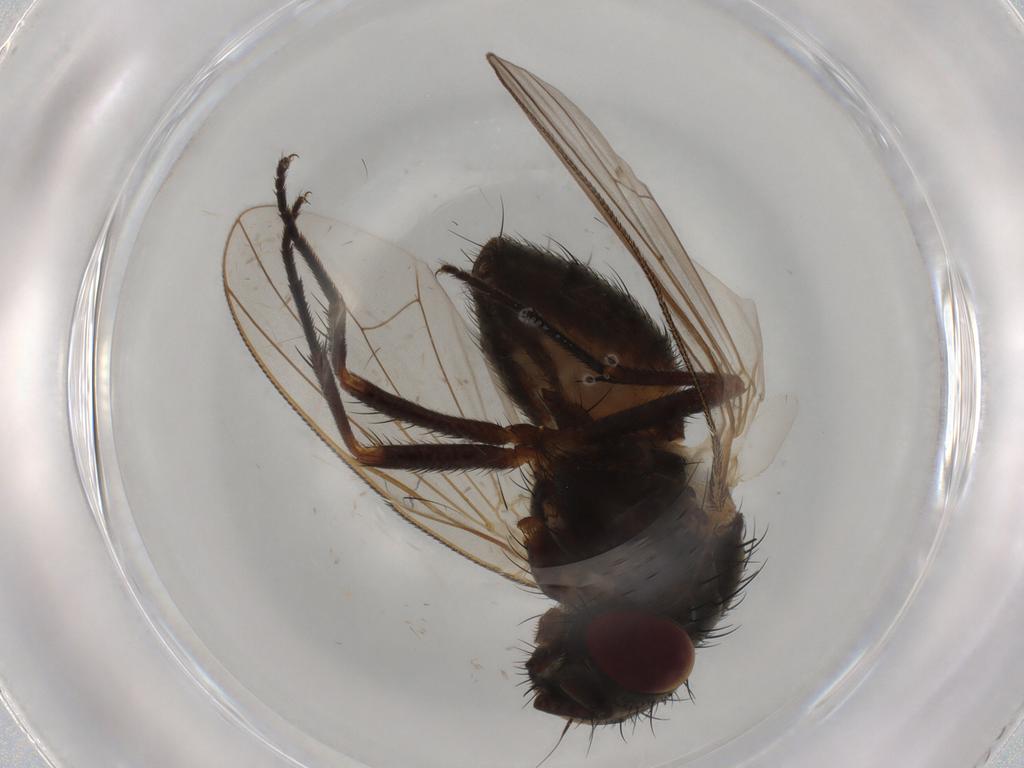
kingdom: Animalia
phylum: Arthropoda
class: Insecta
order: Diptera
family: Fannia
